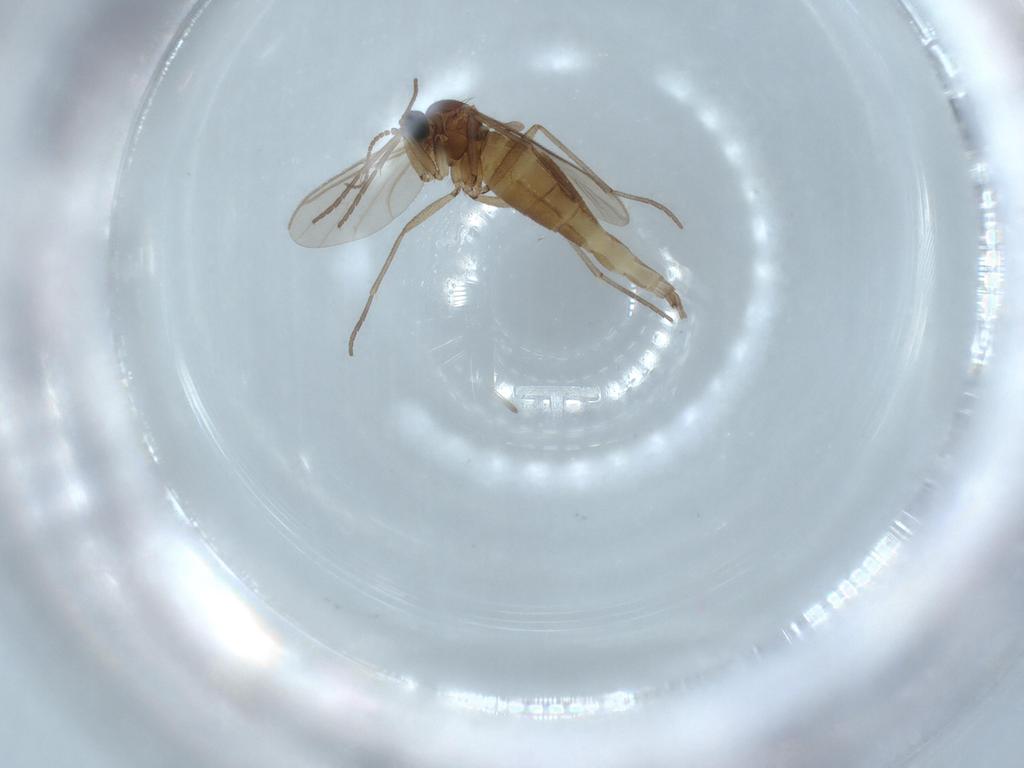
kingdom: Animalia
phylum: Arthropoda
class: Insecta
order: Diptera
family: Sciaridae
